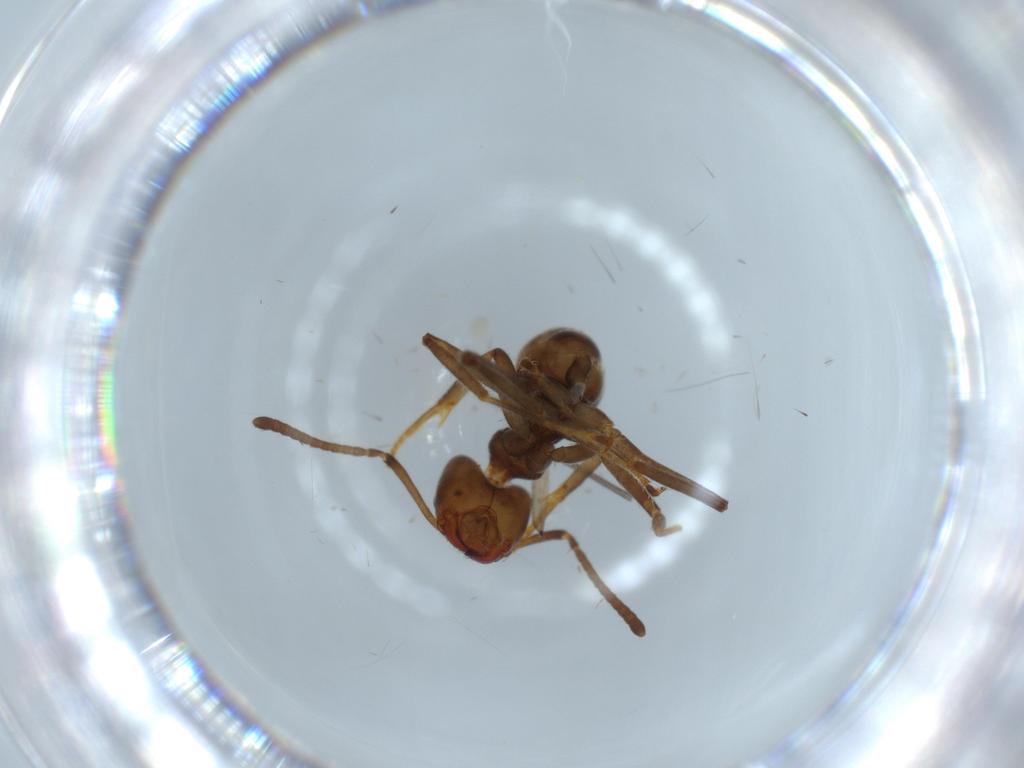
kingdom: Animalia
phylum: Arthropoda
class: Insecta
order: Hymenoptera
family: Formicidae
